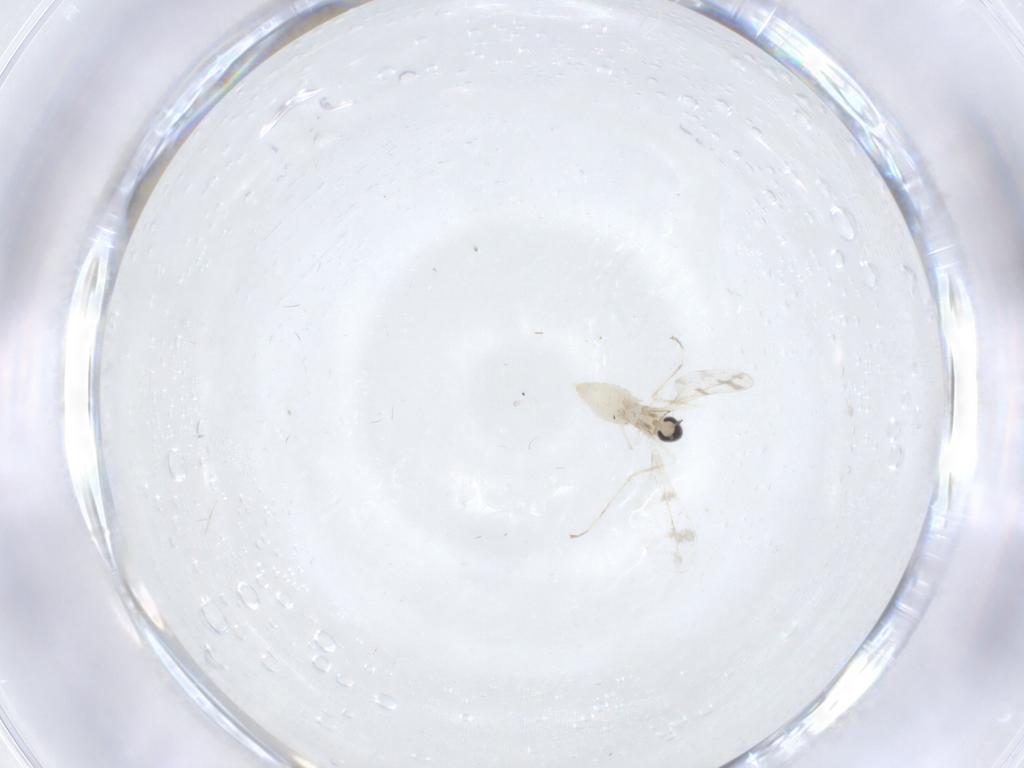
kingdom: Animalia
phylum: Arthropoda
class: Insecta
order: Diptera
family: Cecidomyiidae
